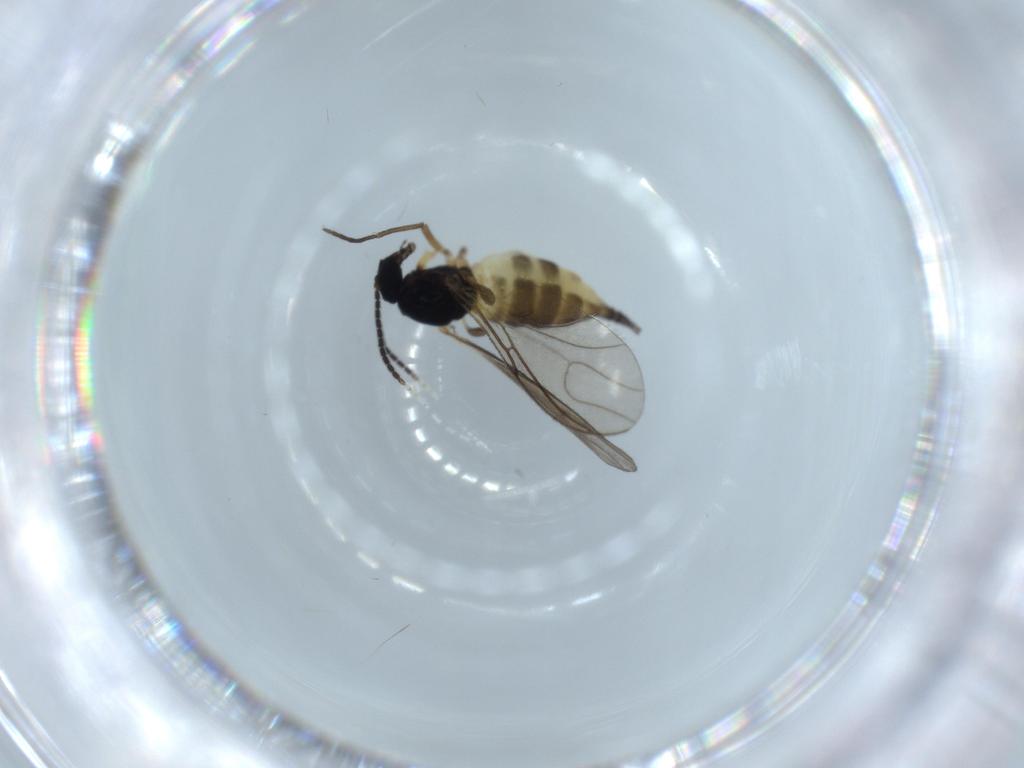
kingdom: Animalia
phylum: Arthropoda
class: Insecta
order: Diptera
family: Sciaridae
